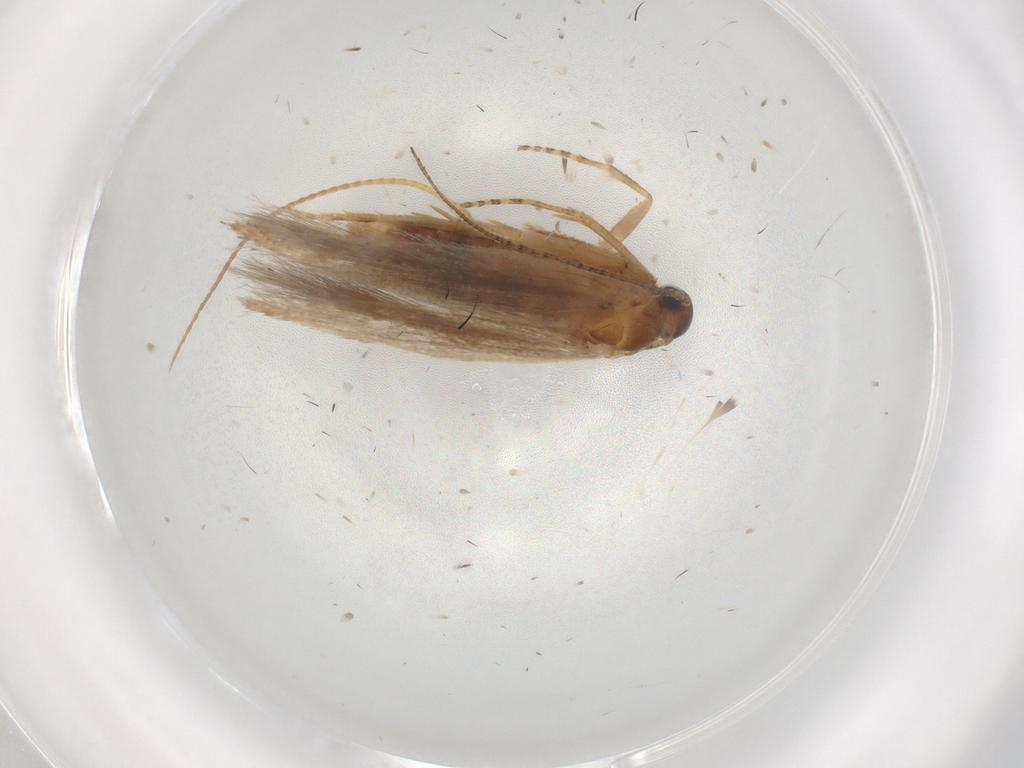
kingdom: Animalia
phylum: Arthropoda
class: Insecta
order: Lepidoptera
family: Geometridae
